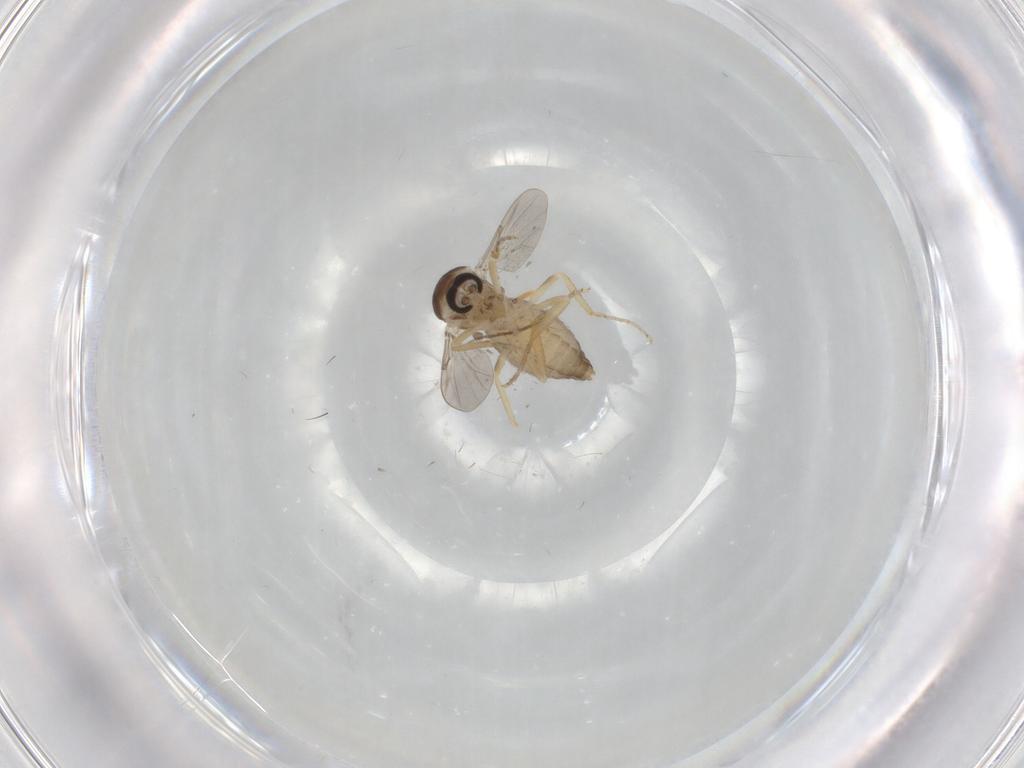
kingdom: Animalia
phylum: Arthropoda
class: Insecta
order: Diptera
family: Ceratopogonidae
